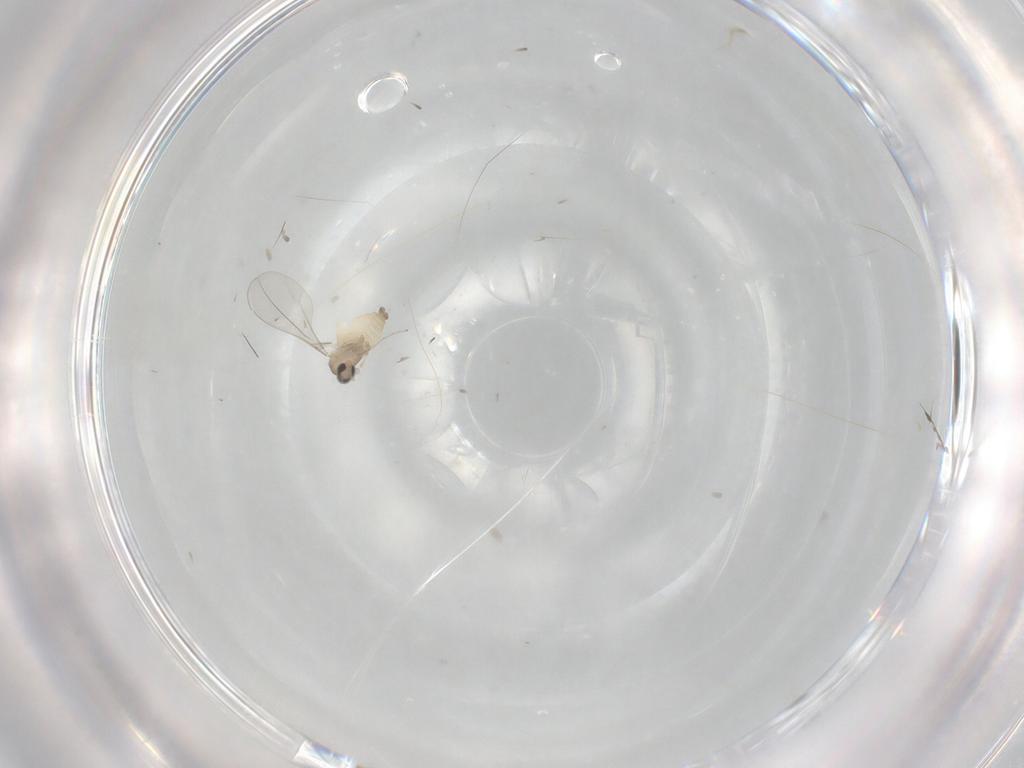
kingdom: Animalia
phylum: Arthropoda
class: Insecta
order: Diptera
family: Cecidomyiidae
